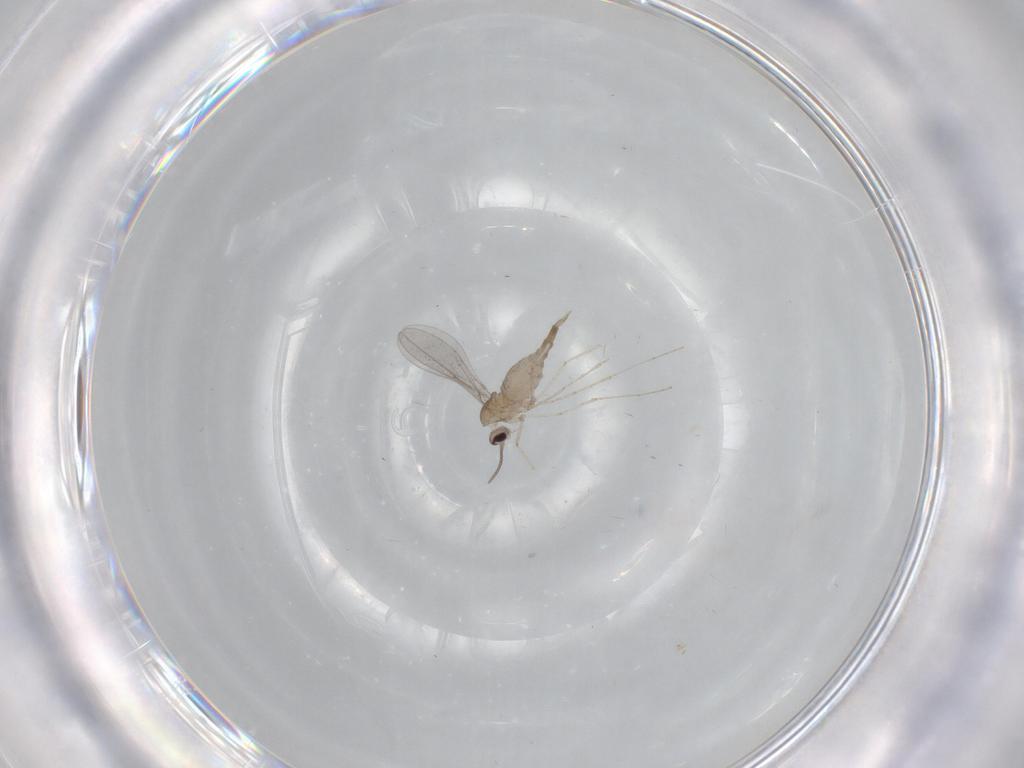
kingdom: Animalia
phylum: Arthropoda
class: Insecta
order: Diptera
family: Cecidomyiidae
